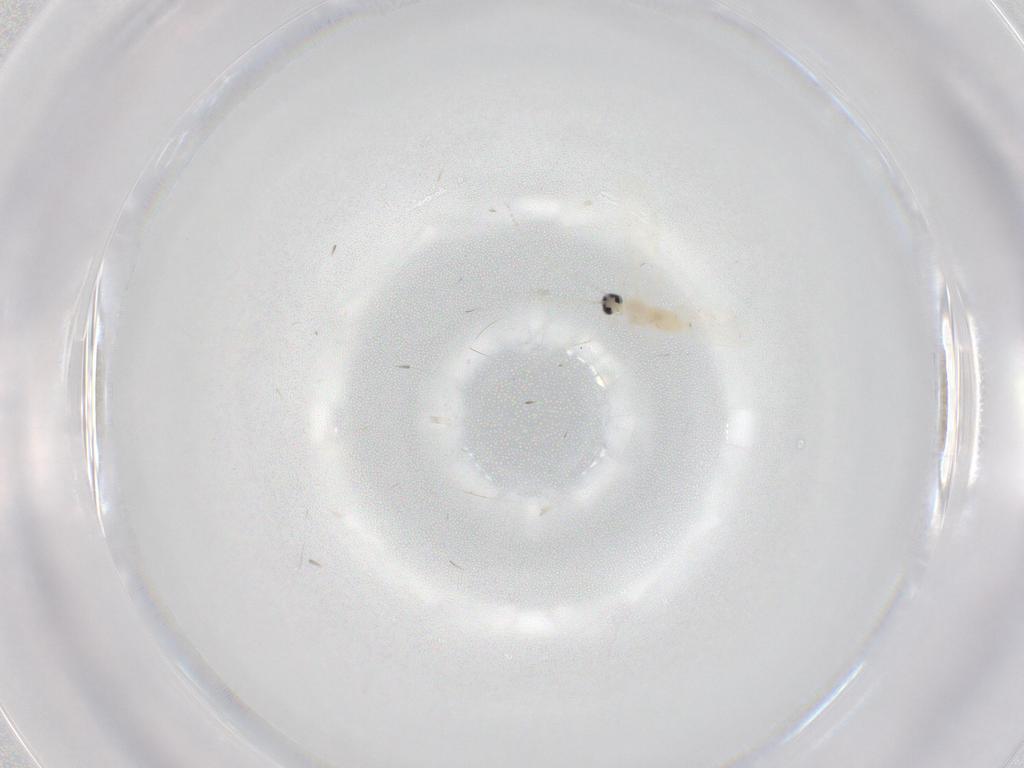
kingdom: Animalia
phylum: Arthropoda
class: Insecta
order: Diptera
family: Cecidomyiidae
